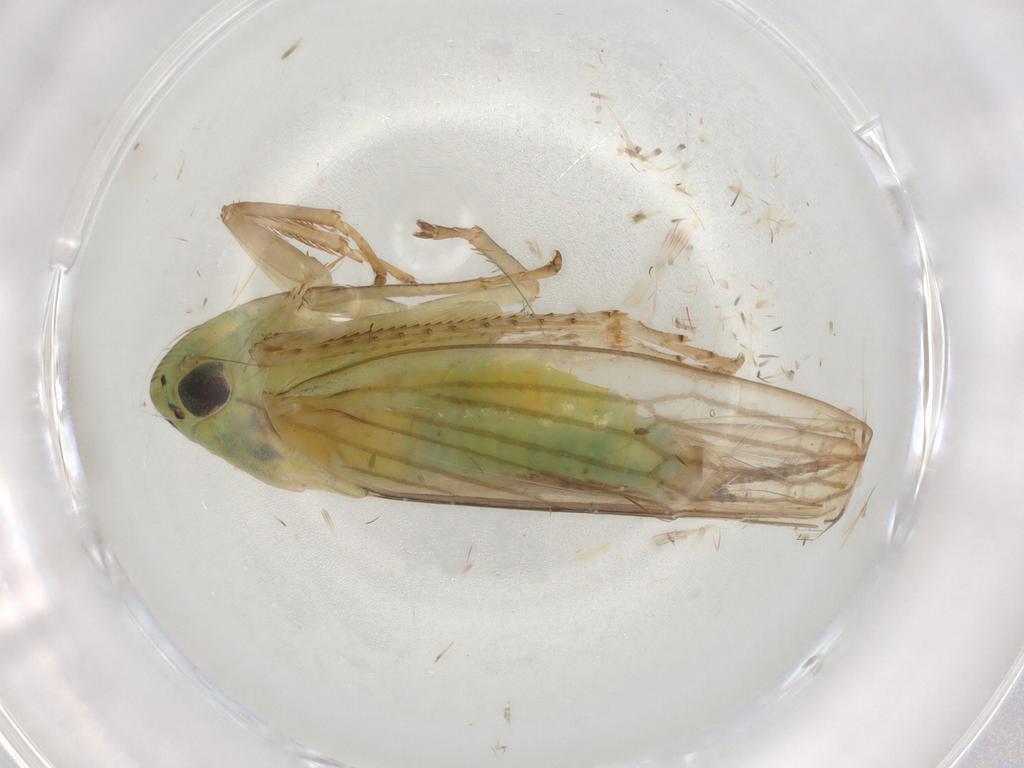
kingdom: Animalia
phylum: Arthropoda
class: Insecta
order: Hemiptera
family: Cicadellidae
